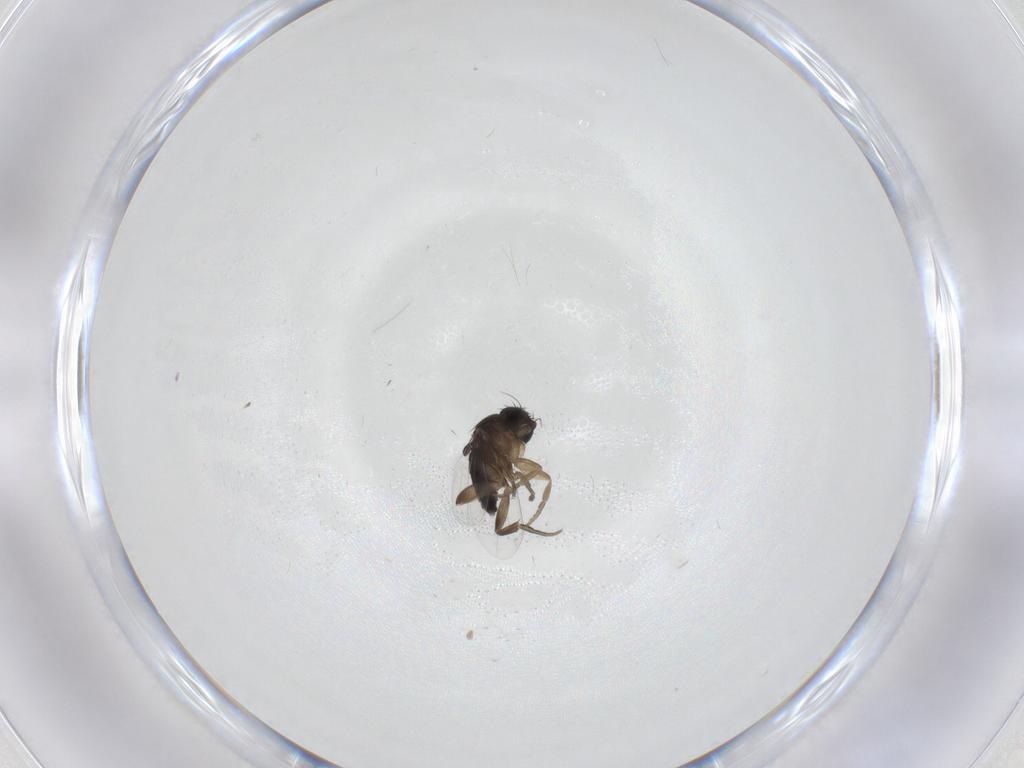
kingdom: Animalia
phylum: Arthropoda
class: Insecta
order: Diptera
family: Phoridae
